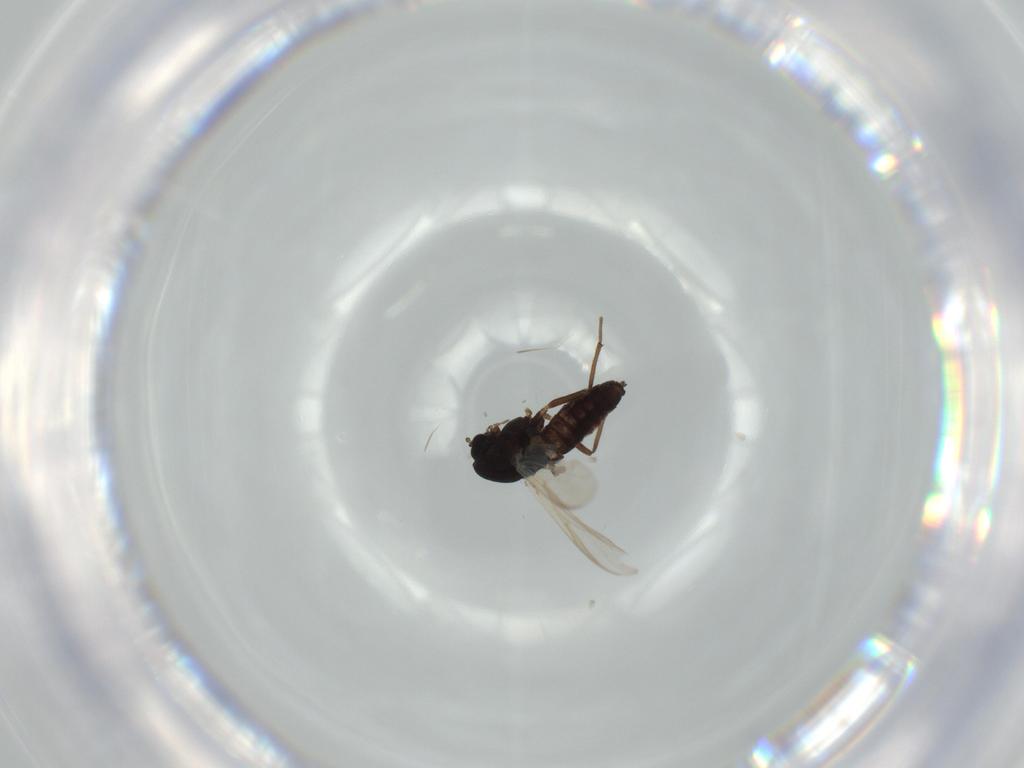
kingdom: Animalia
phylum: Arthropoda
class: Insecta
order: Diptera
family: Chironomidae
